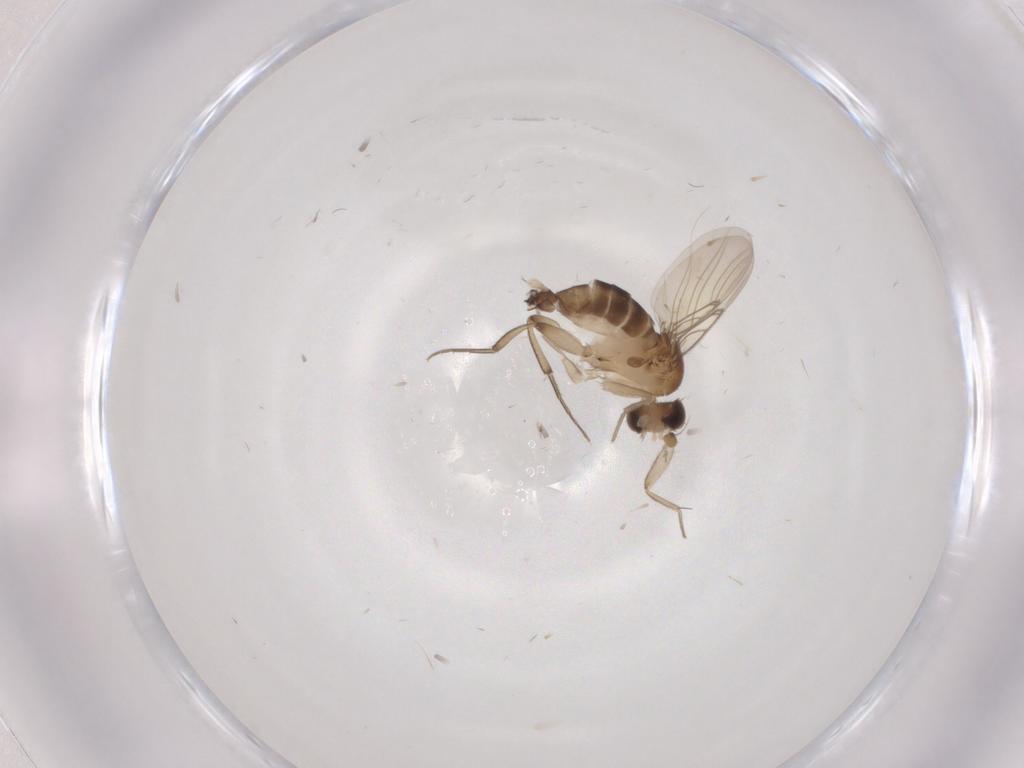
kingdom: Animalia
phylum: Arthropoda
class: Insecta
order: Diptera
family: Phoridae
